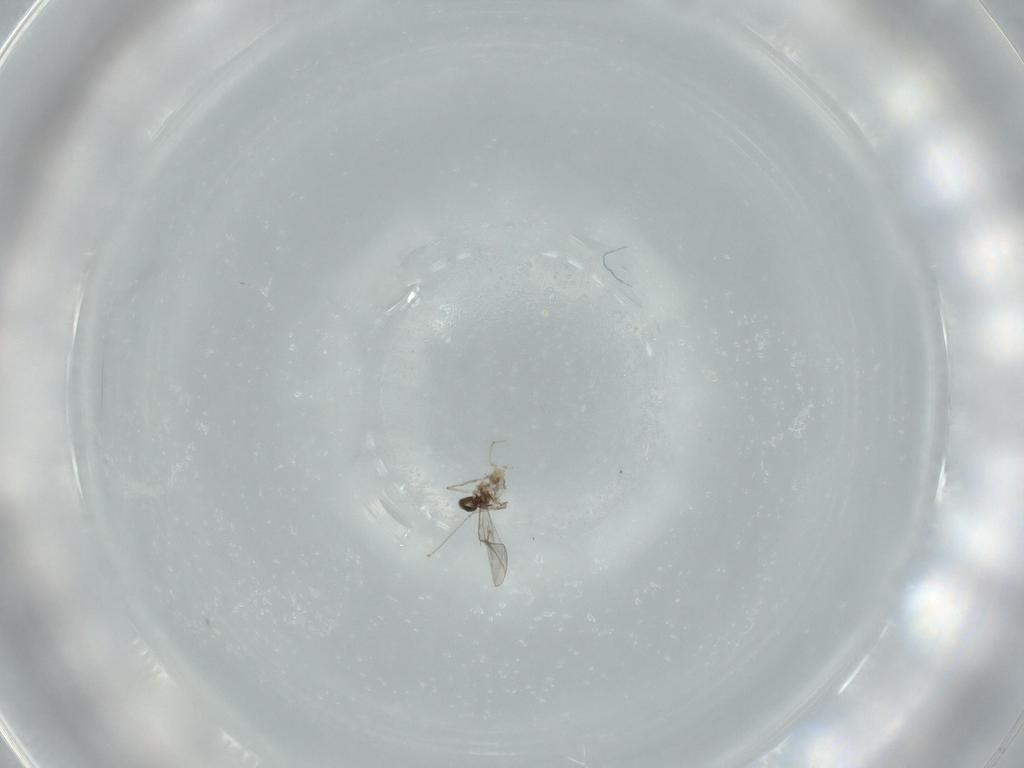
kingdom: Animalia
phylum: Arthropoda
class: Insecta
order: Diptera
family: Cecidomyiidae
